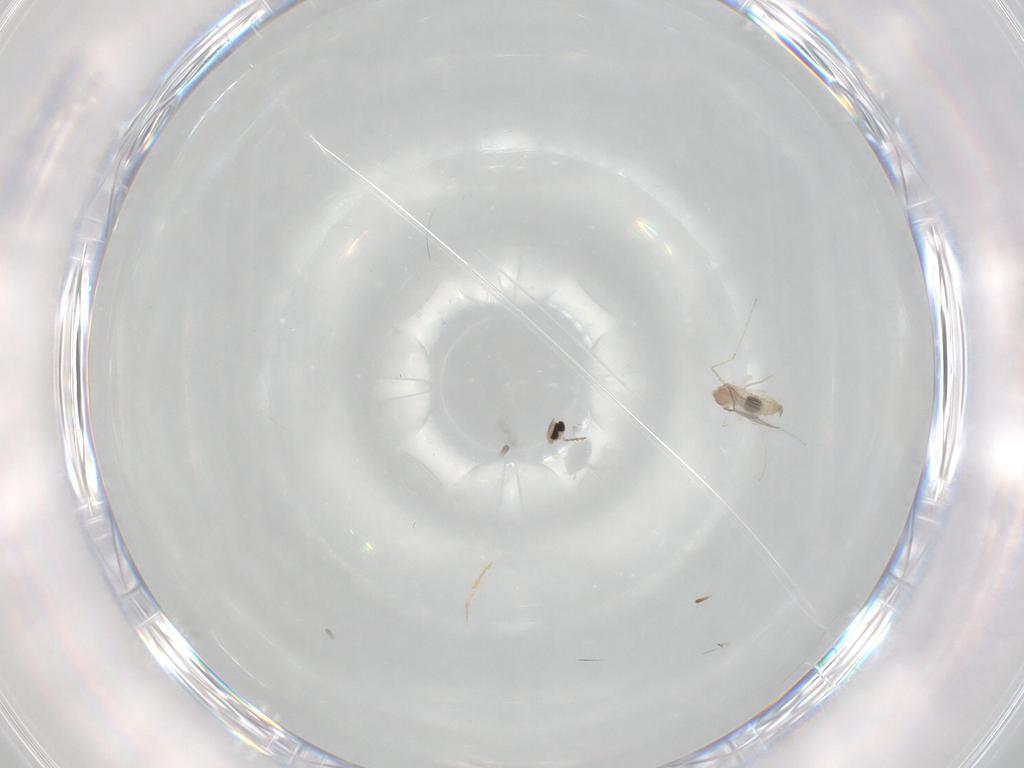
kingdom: Animalia
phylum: Arthropoda
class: Insecta
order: Diptera
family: Cecidomyiidae
